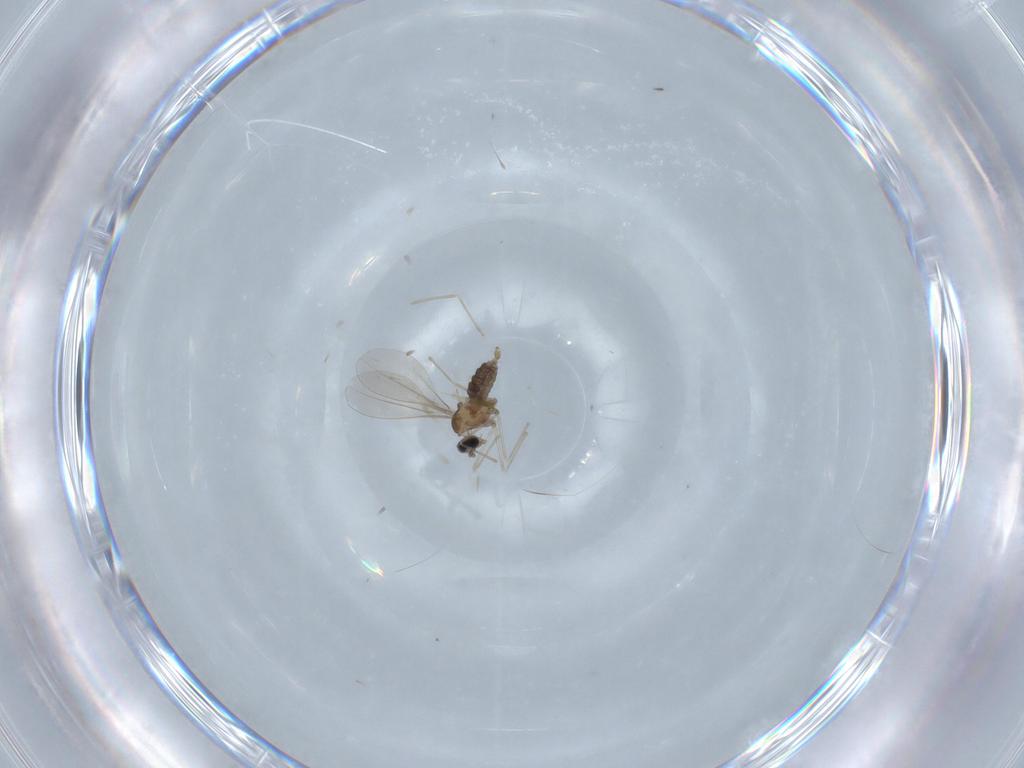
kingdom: Animalia
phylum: Arthropoda
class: Insecta
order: Diptera
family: Cecidomyiidae
